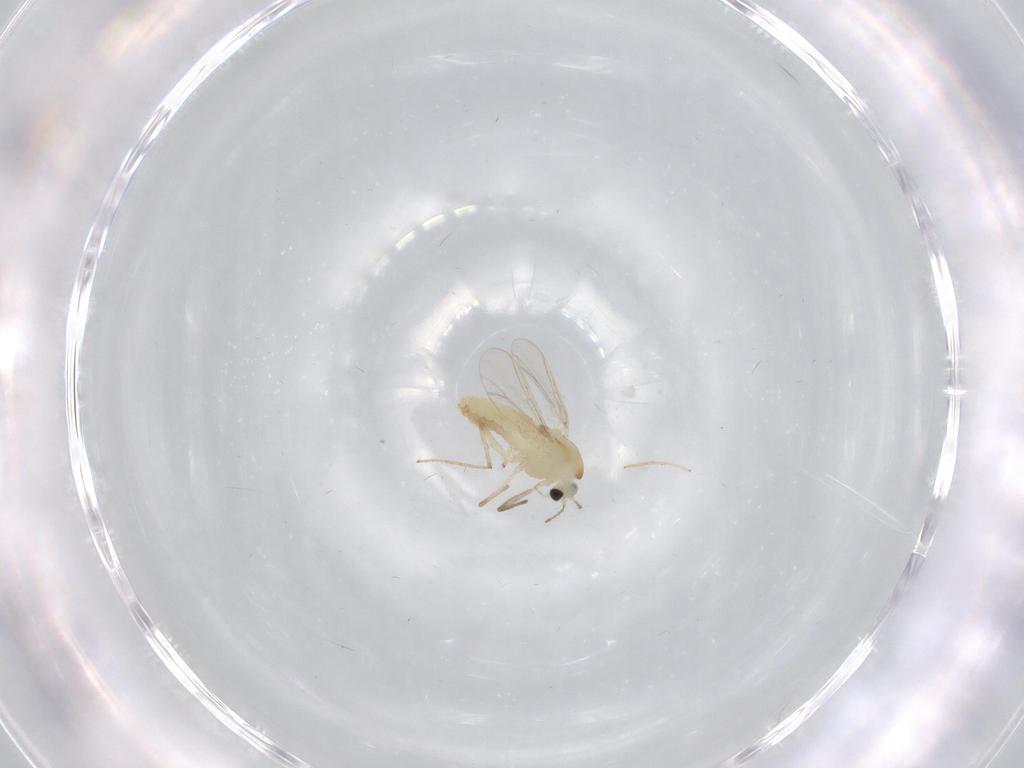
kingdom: Animalia
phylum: Arthropoda
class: Insecta
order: Diptera
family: Chironomidae
